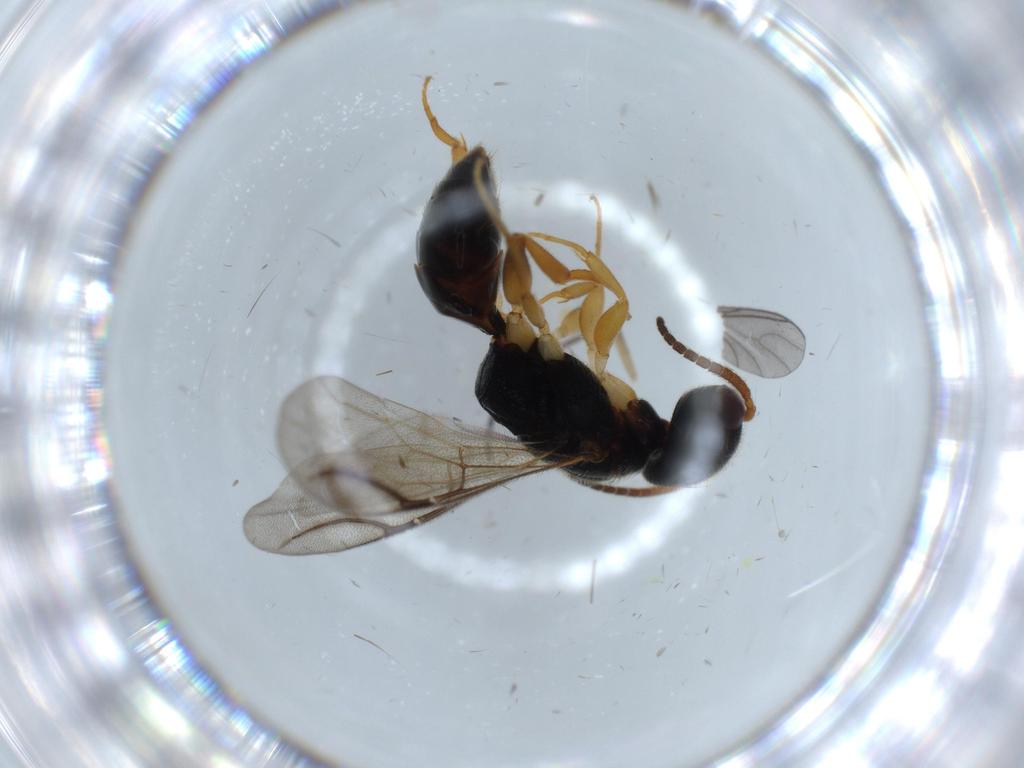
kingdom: Animalia
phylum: Arthropoda
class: Insecta
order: Hymenoptera
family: Bethylidae
